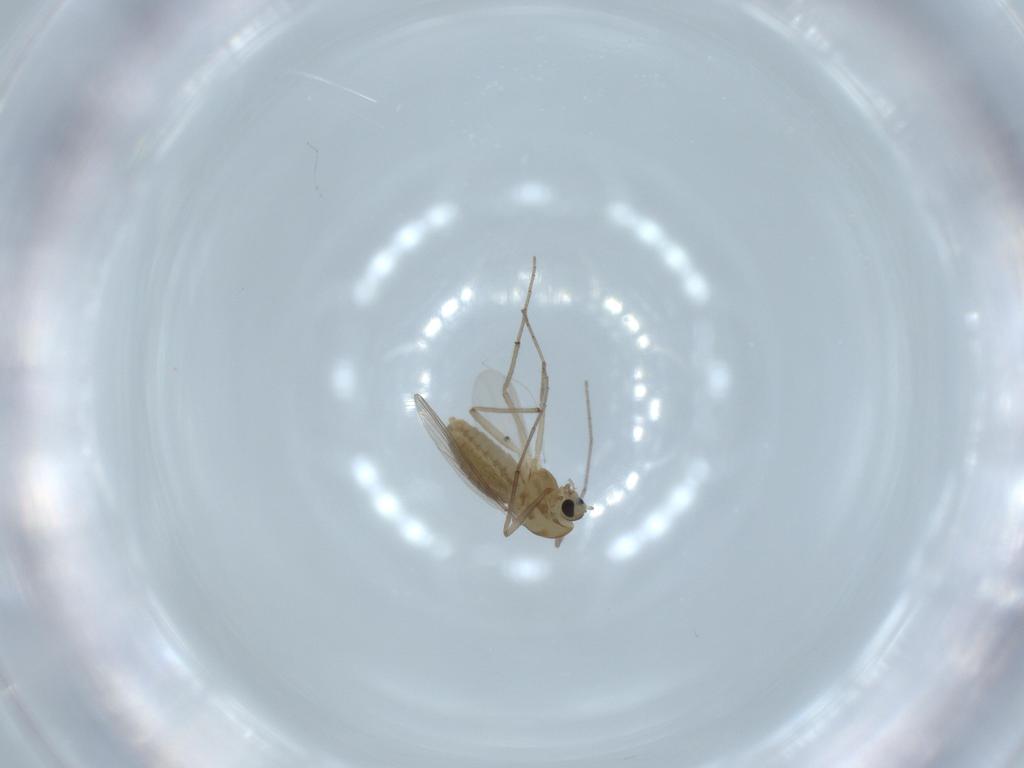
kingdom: Animalia
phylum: Arthropoda
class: Insecta
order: Diptera
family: Chironomidae
